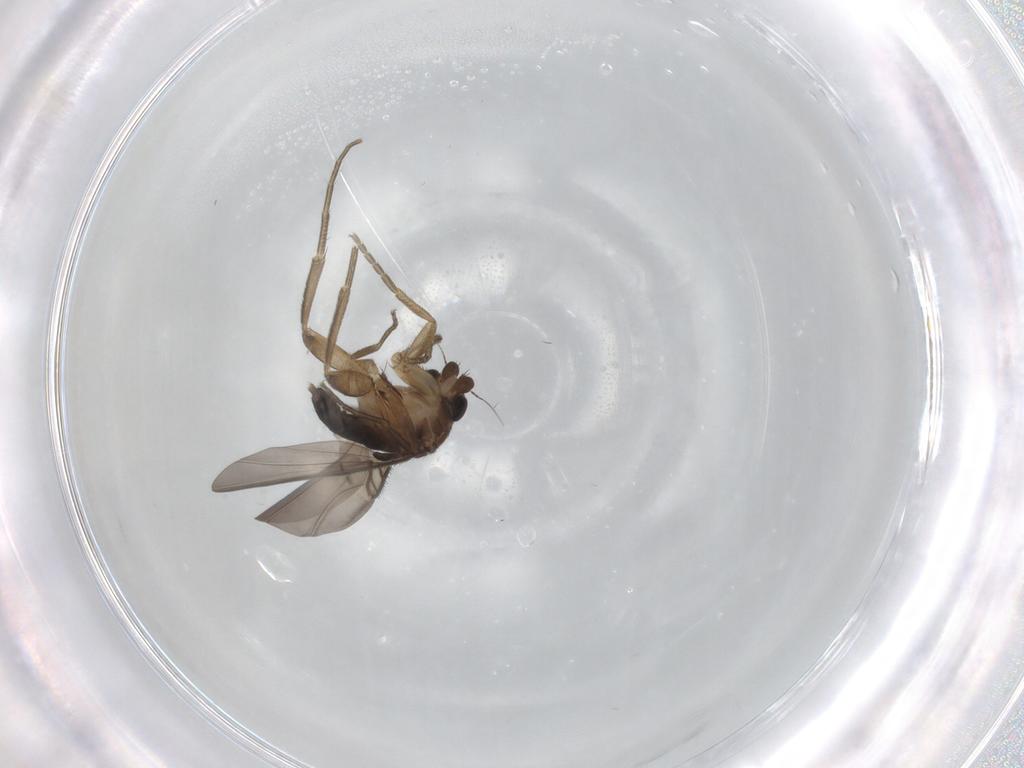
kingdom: Animalia
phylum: Arthropoda
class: Insecta
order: Diptera
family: Phoridae
